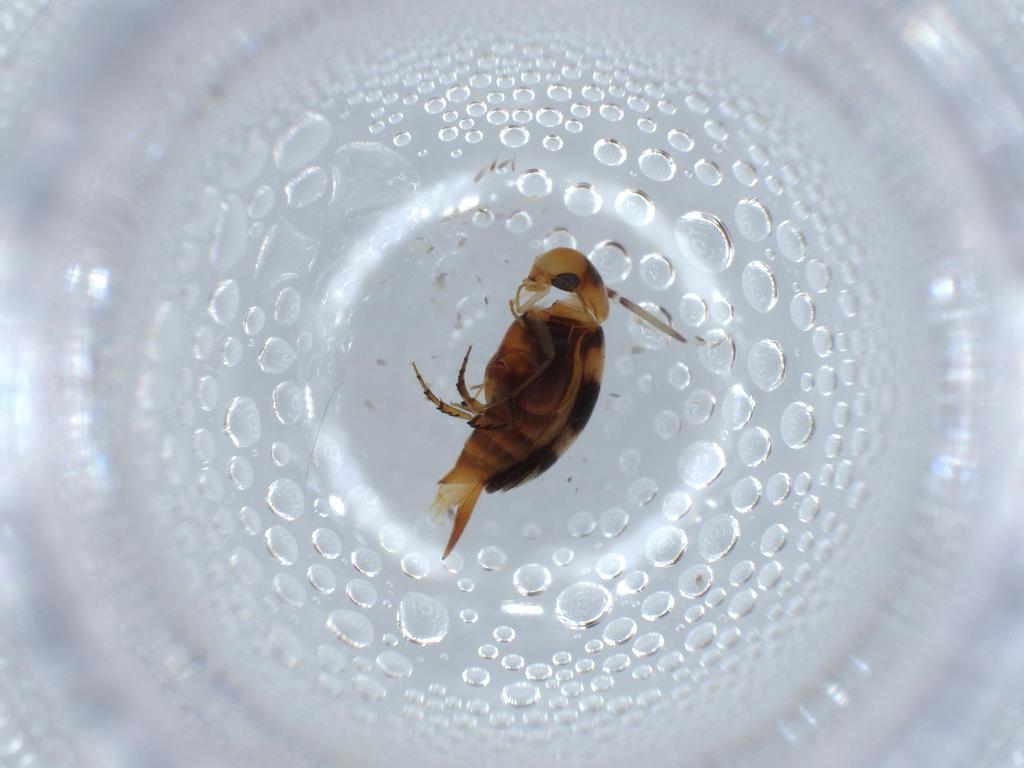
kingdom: Animalia
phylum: Arthropoda
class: Insecta
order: Coleoptera
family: Mordellidae
